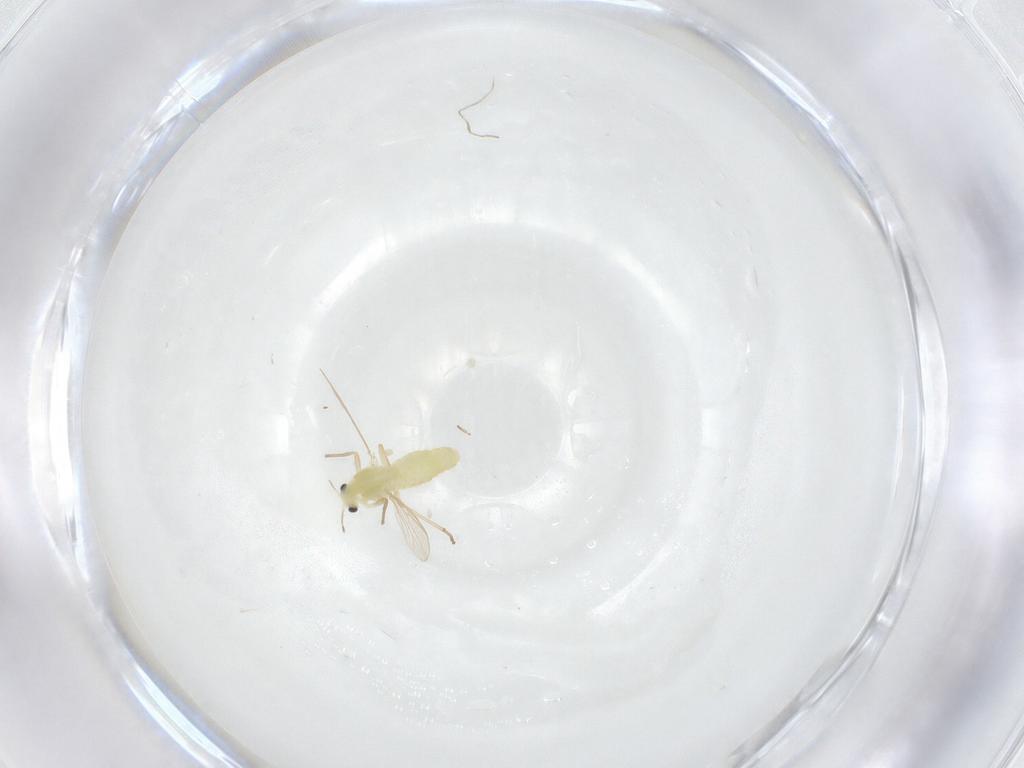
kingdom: Animalia
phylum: Arthropoda
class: Insecta
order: Diptera
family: Chironomidae
